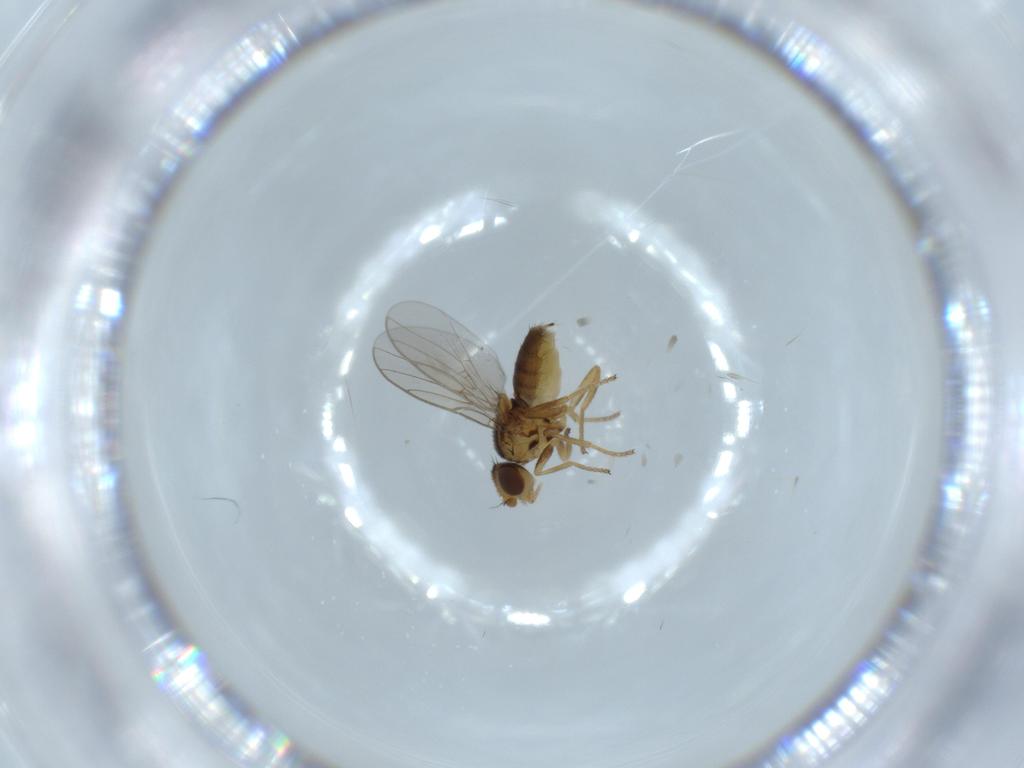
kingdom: Animalia
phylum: Arthropoda
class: Insecta
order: Diptera
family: Chloropidae
